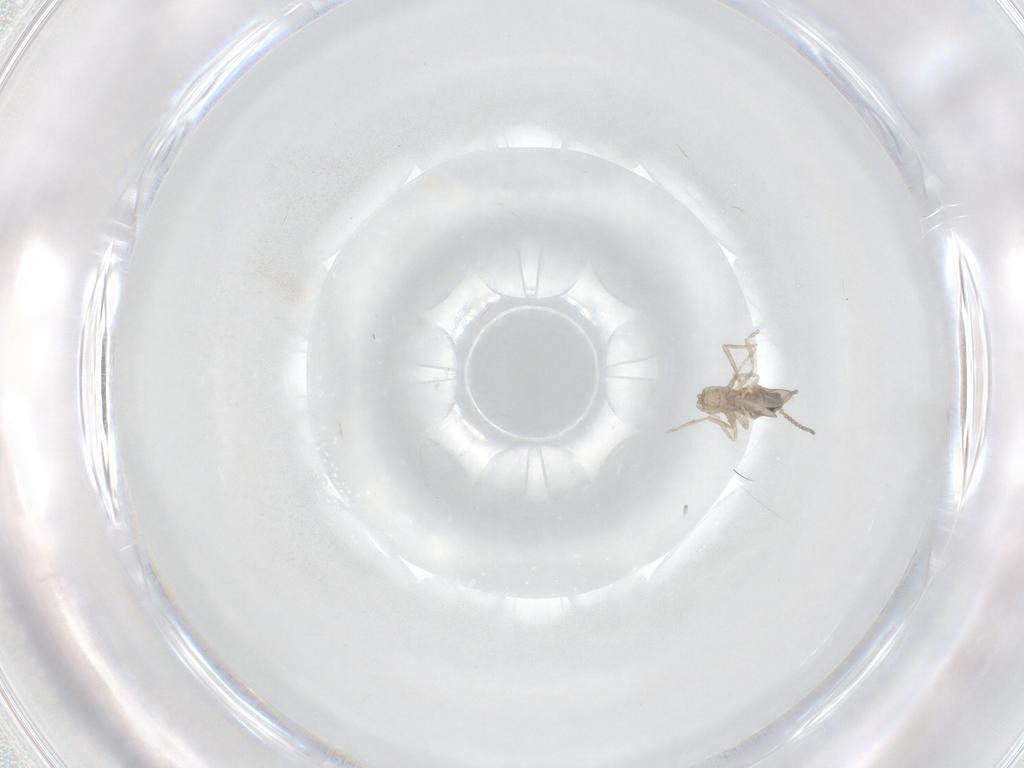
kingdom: Animalia
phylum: Arthropoda
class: Insecta
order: Diptera
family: Cecidomyiidae
